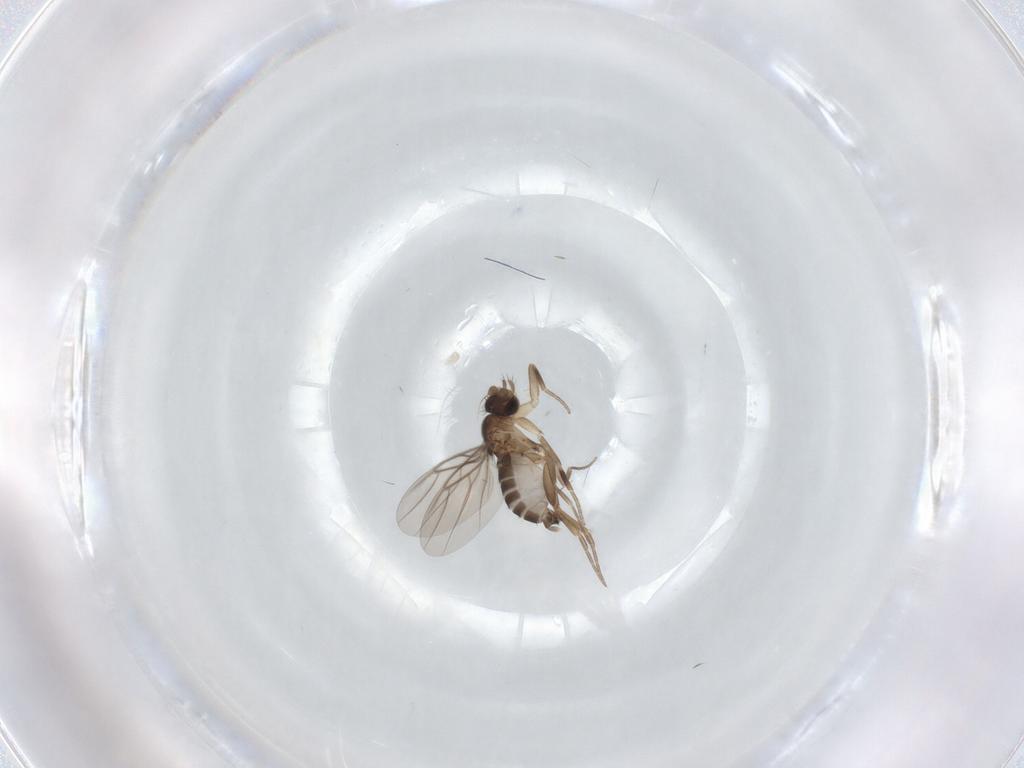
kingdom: Animalia
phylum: Arthropoda
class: Insecta
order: Diptera
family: Phoridae
